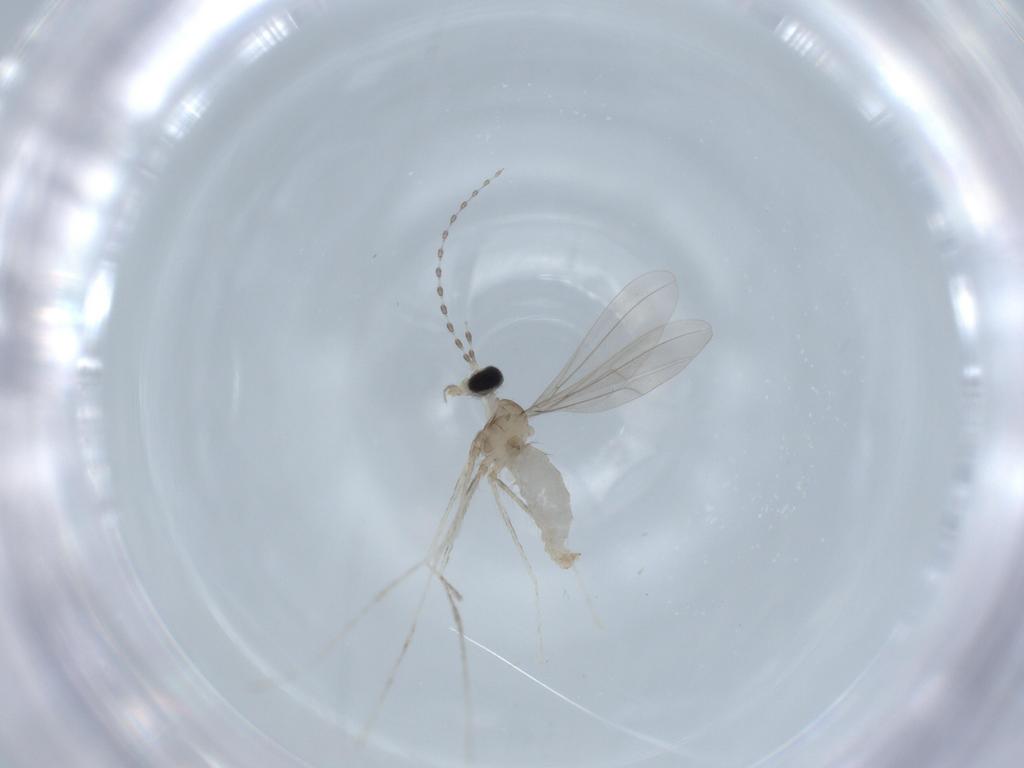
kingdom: Animalia
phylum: Arthropoda
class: Insecta
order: Diptera
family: Cecidomyiidae
